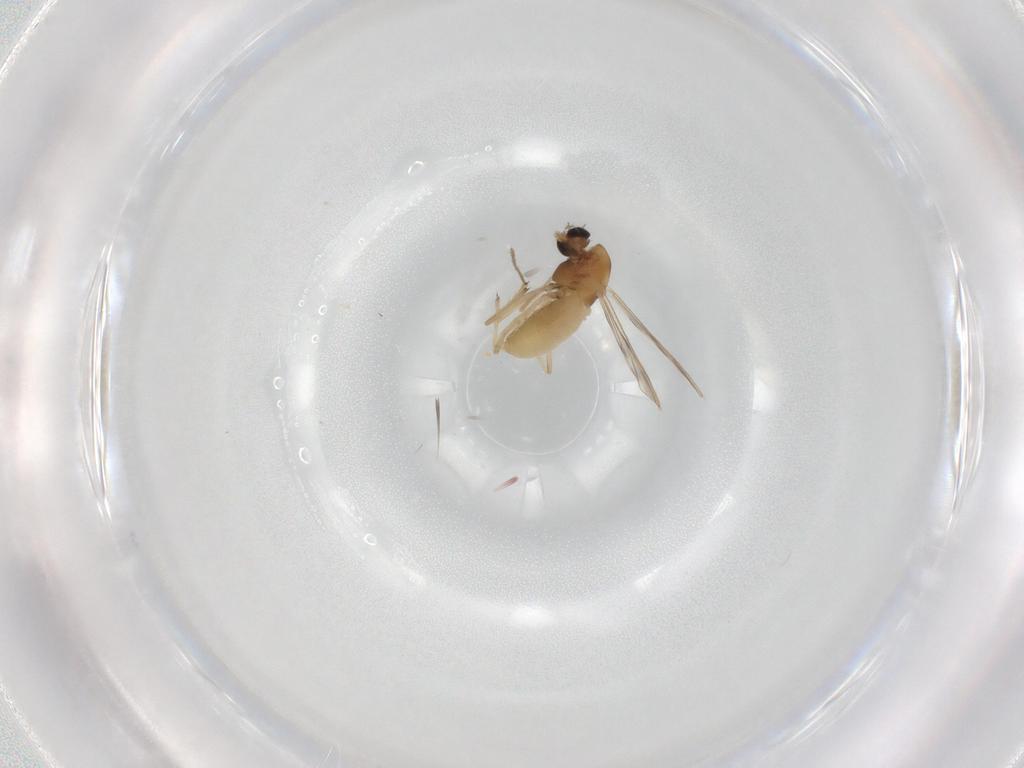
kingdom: Animalia
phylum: Arthropoda
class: Insecta
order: Diptera
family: Chironomidae
